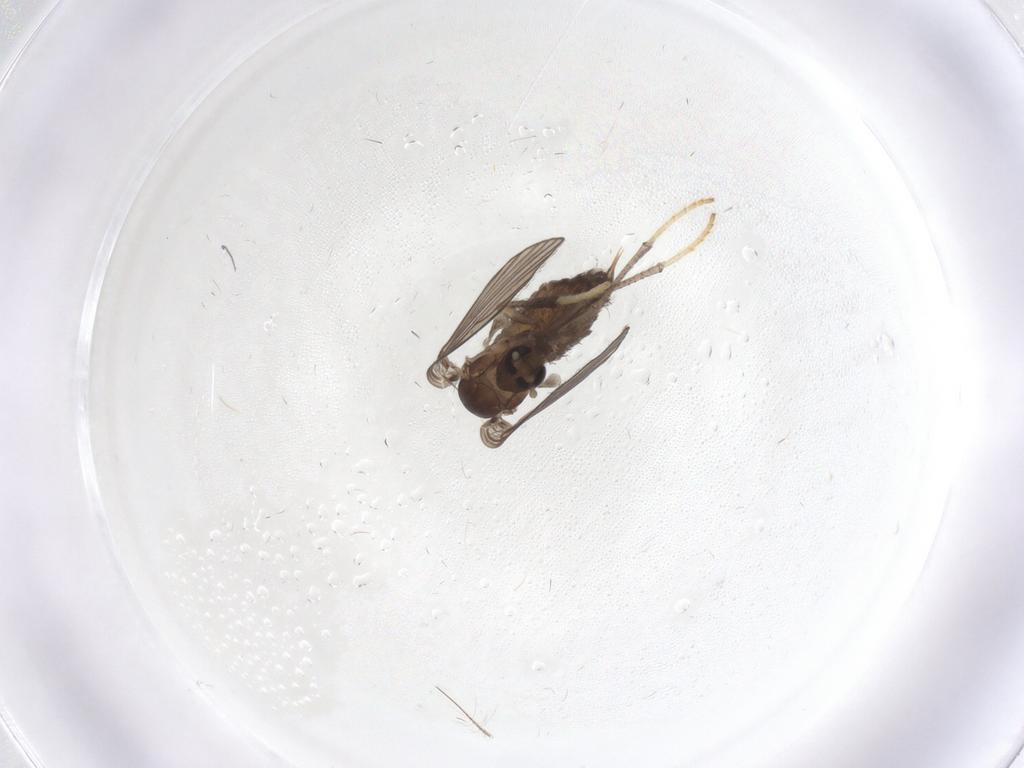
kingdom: Animalia
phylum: Arthropoda
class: Insecta
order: Diptera
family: Psychodidae
